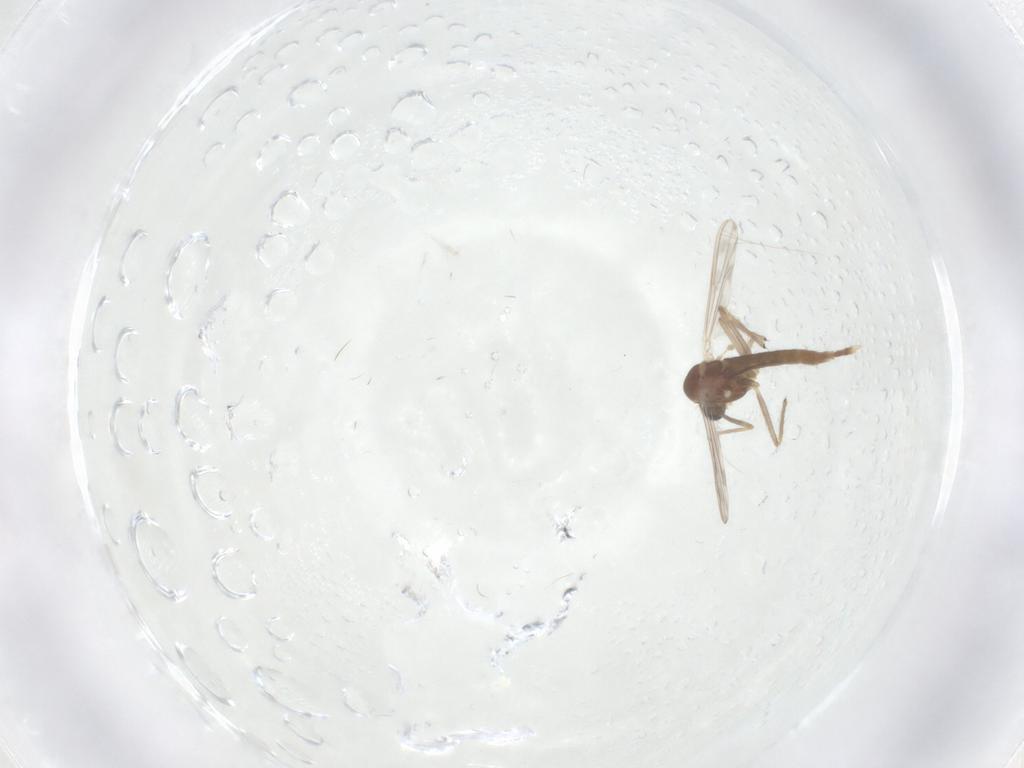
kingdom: Animalia
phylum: Arthropoda
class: Insecta
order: Diptera
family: Chironomidae
